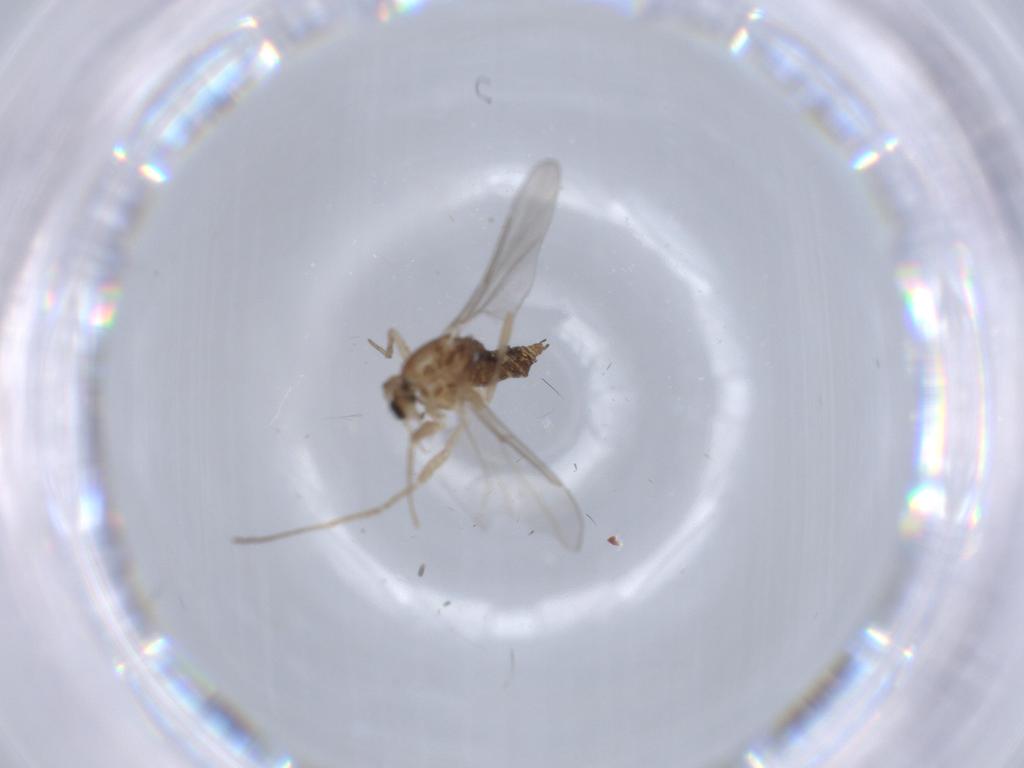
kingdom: Animalia
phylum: Arthropoda
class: Insecta
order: Diptera
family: Cecidomyiidae
